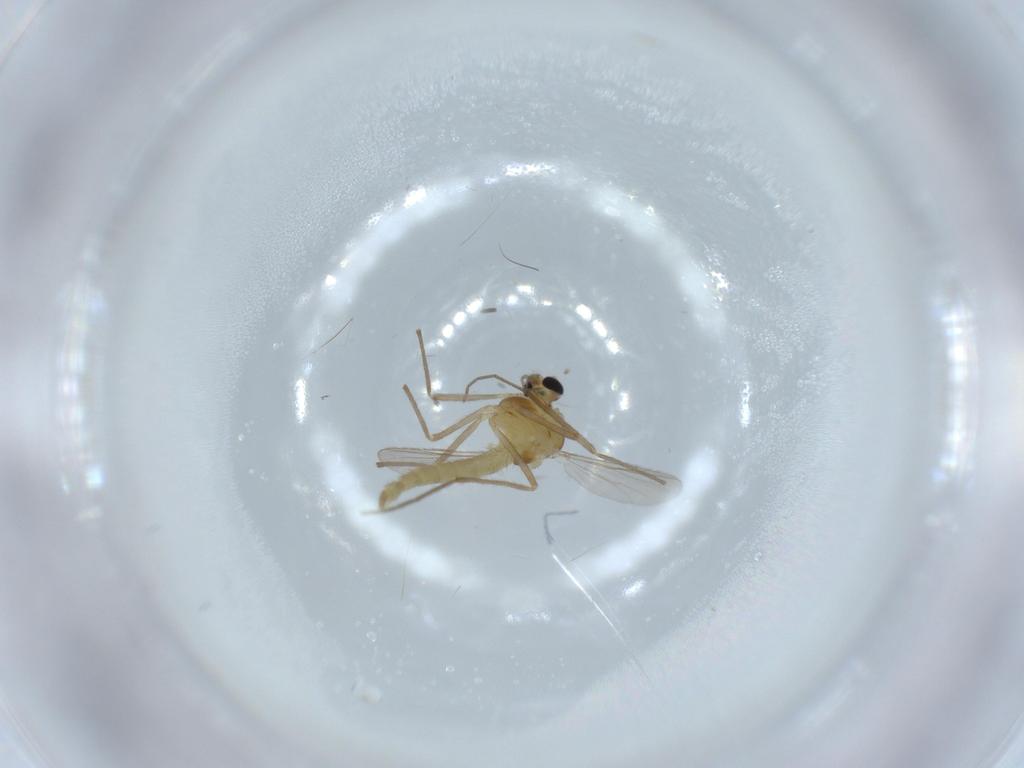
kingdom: Animalia
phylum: Arthropoda
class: Insecta
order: Diptera
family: Chironomidae
